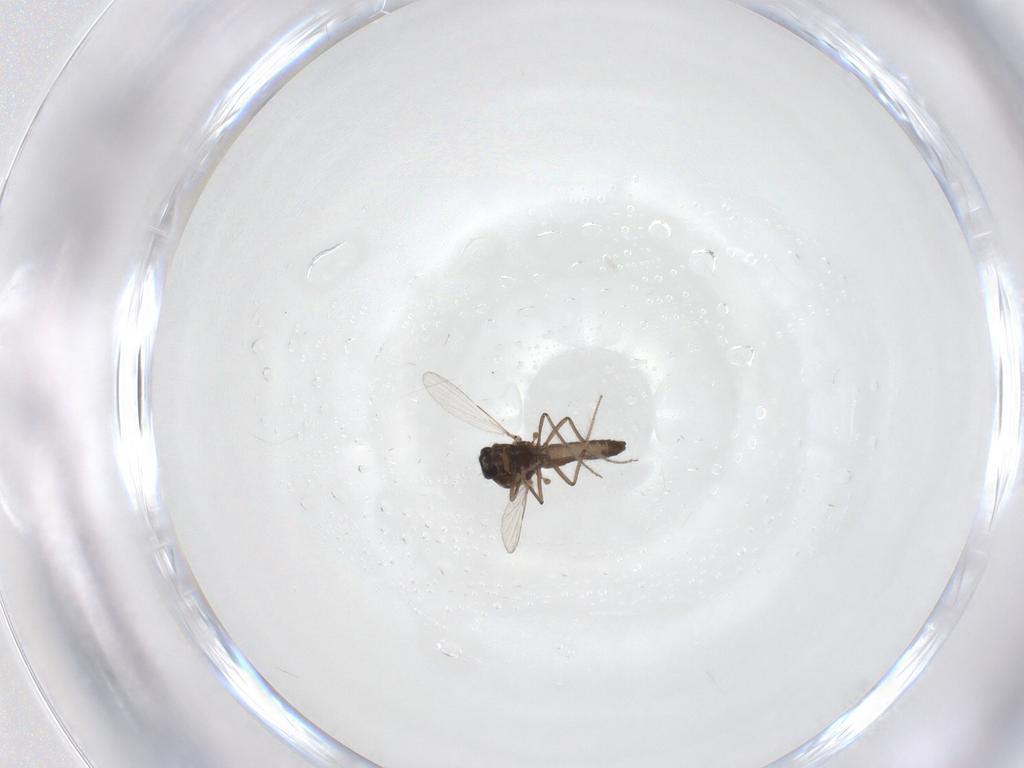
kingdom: Animalia
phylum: Arthropoda
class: Insecta
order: Diptera
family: Ceratopogonidae
